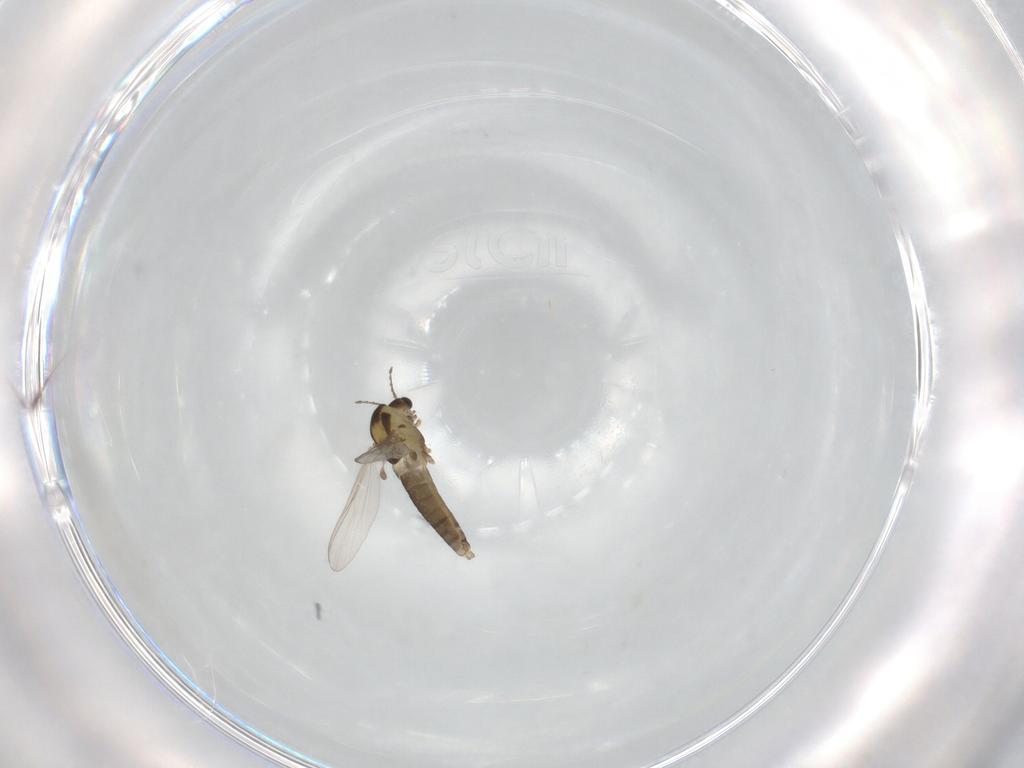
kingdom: Animalia
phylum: Arthropoda
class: Insecta
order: Diptera
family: Chironomidae
